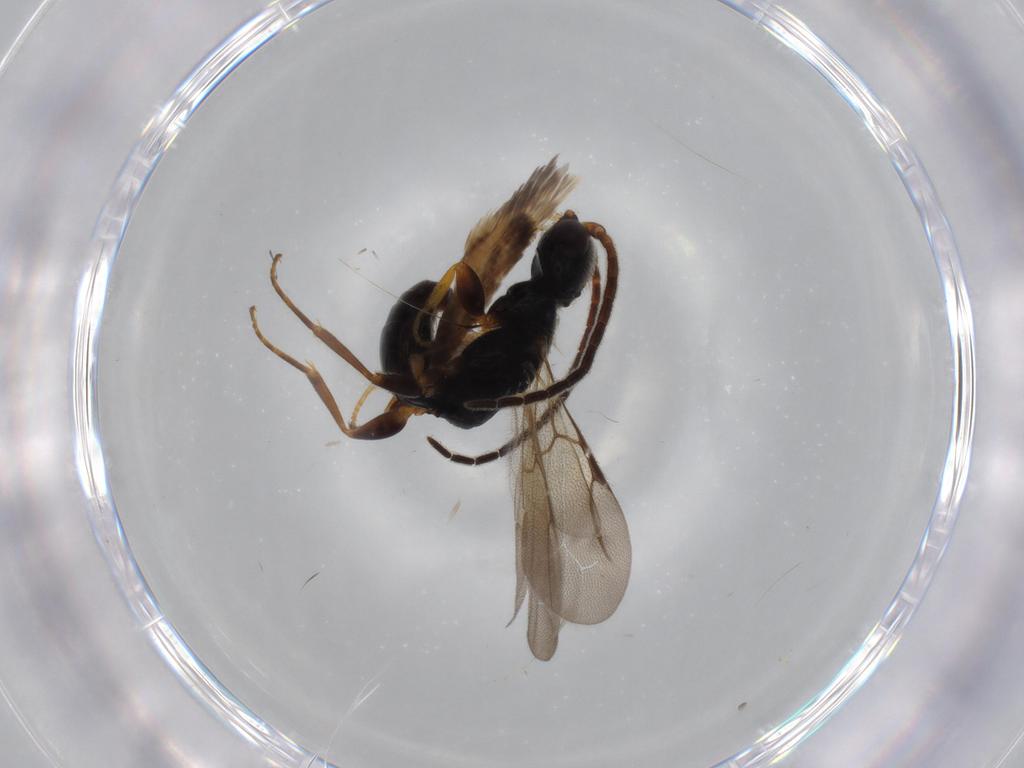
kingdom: Animalia
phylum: Arthropoda
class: Insecta
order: Hymenoptera
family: Bethylidae
